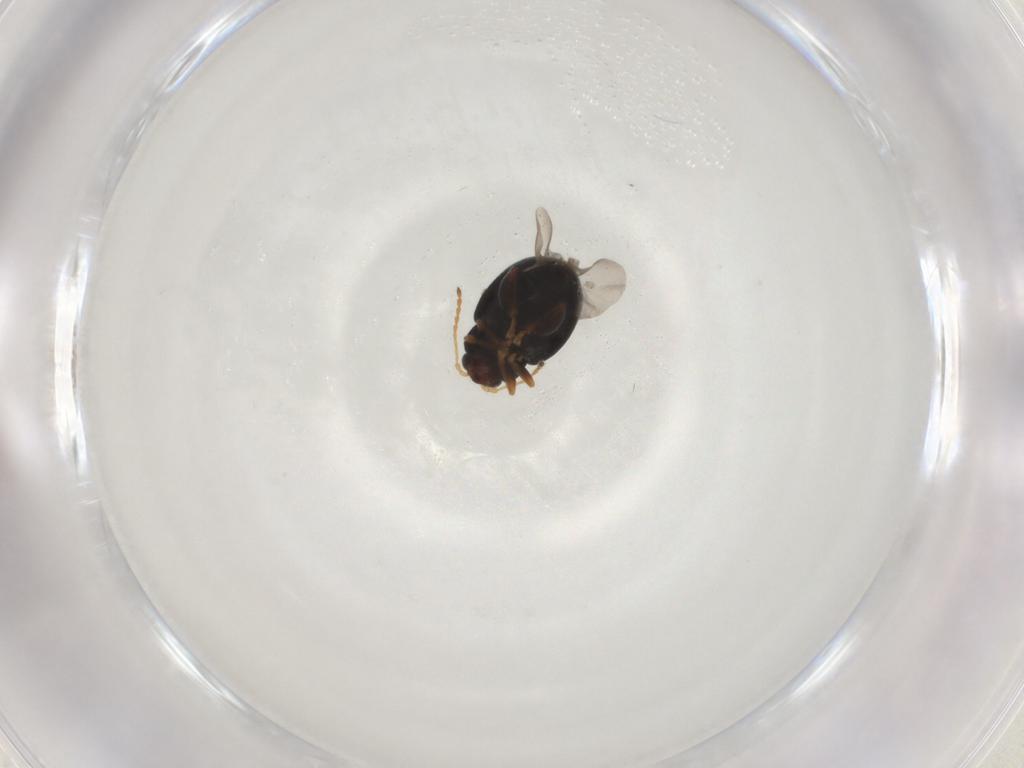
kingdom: Animalia
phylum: Arthropoda
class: Insecta
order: Coleoptera
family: Chrysomelidae
